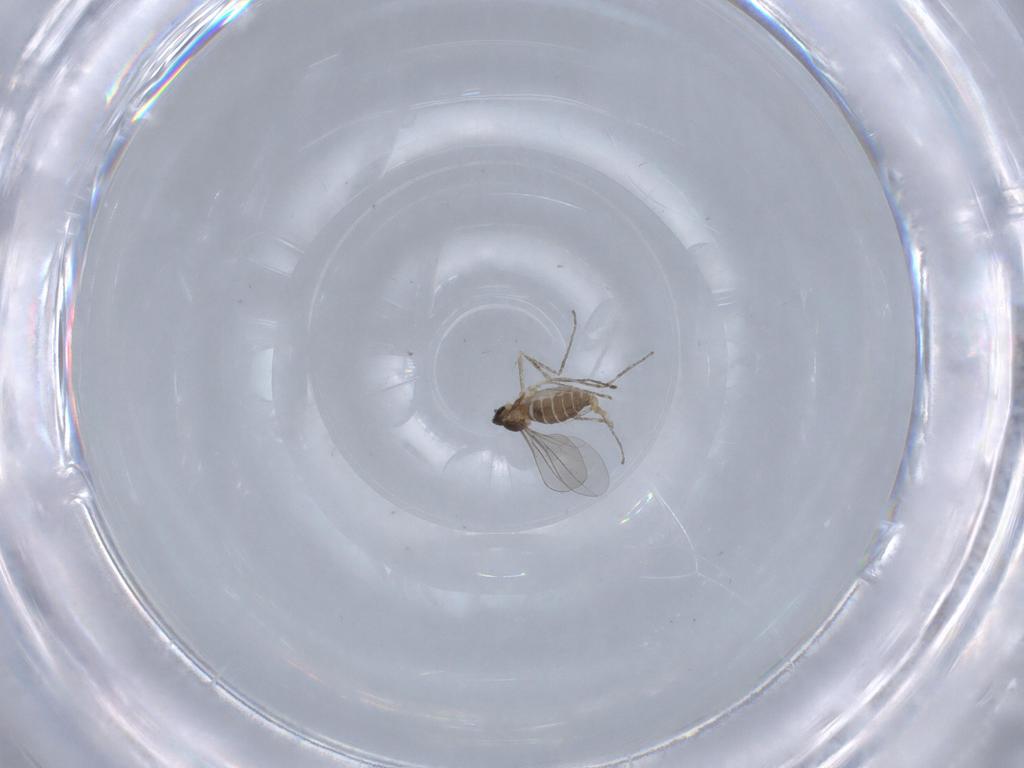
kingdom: Animalia
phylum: Arthropoda
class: Insecta
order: Diptera
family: Cecidomyiidae
